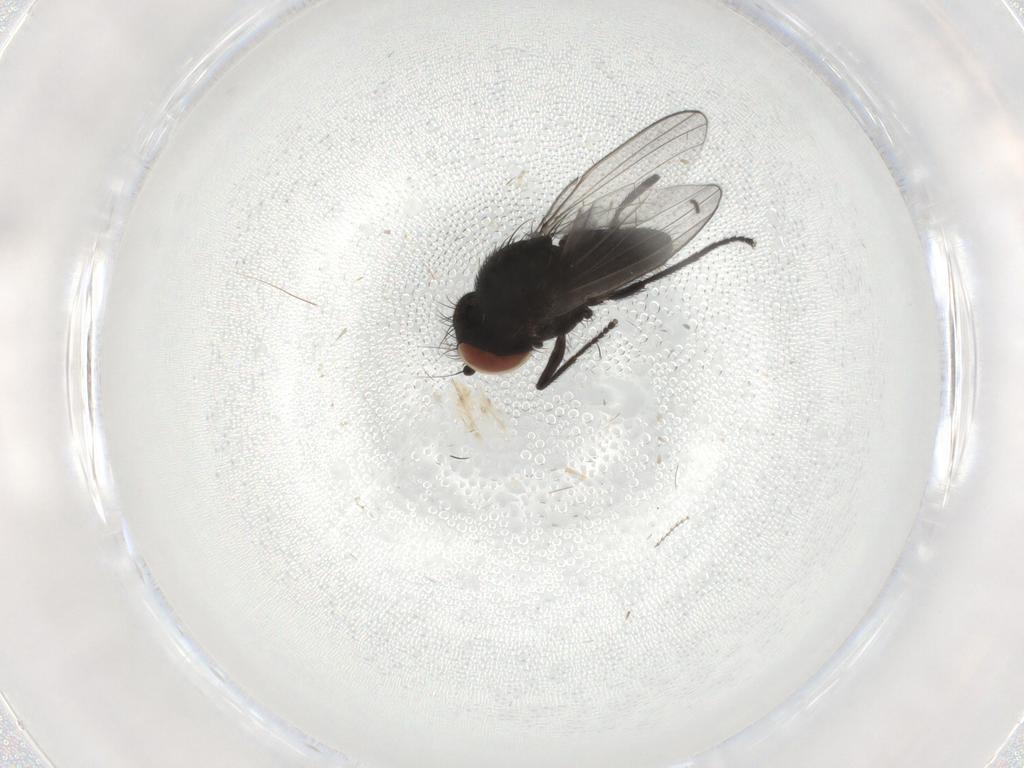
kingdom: Animalia
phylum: Arthropoda
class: Insecta
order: Diptera
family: Milichiidae
